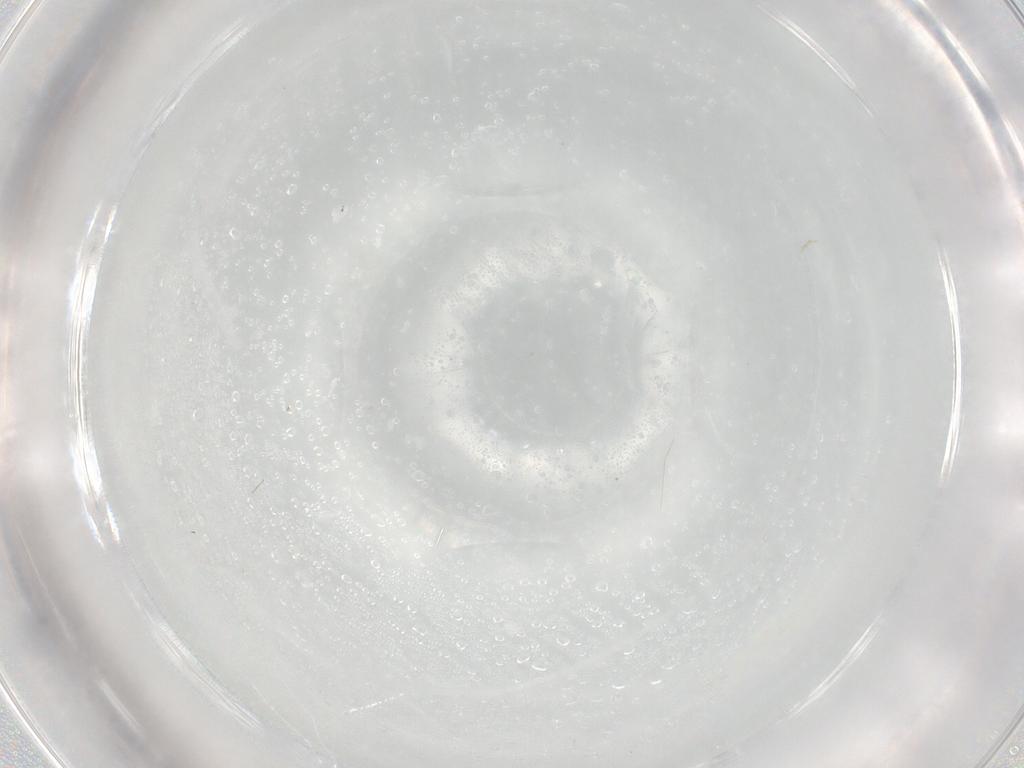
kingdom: Animalia
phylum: Arthropoda
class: Insecta
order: Diptera
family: Cecidomyiidae
